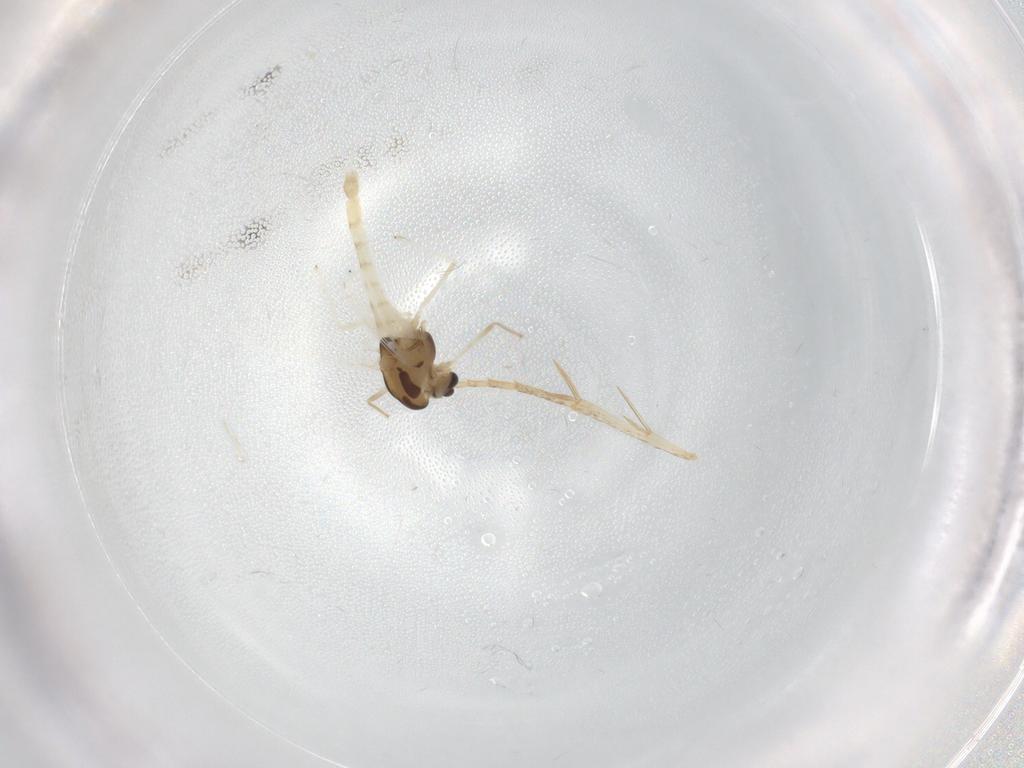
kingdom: Animalia
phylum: Arthropoda
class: Insecta
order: Diptera
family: Chironomidae
